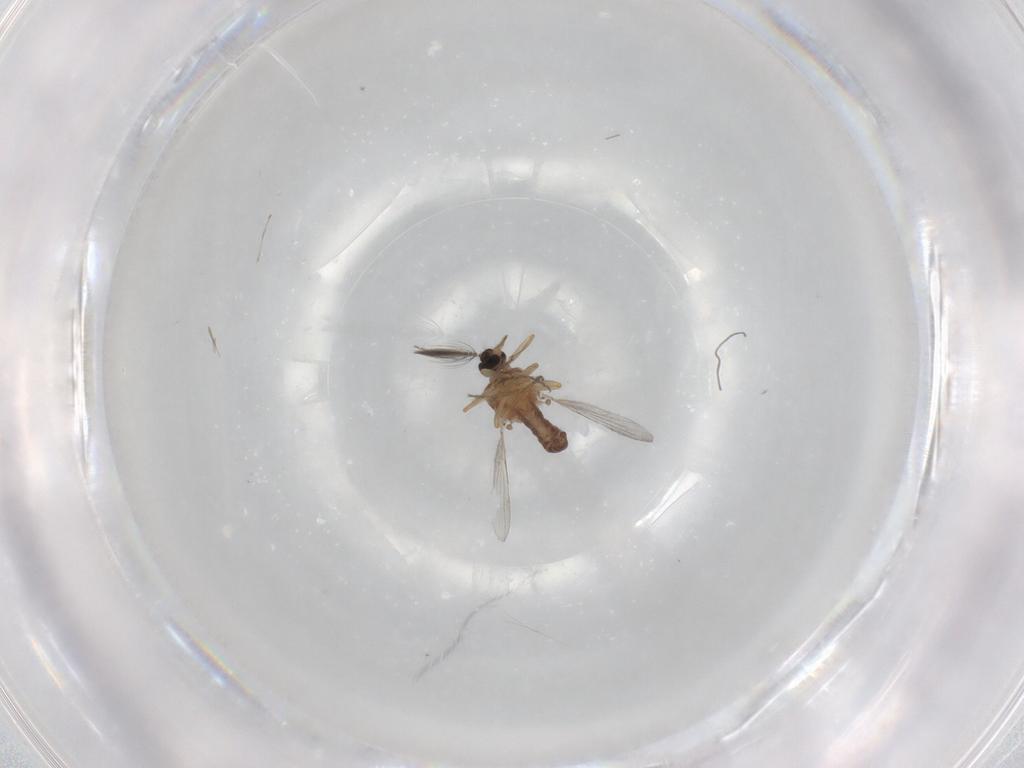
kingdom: Animalia
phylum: Arthropoda
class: Insecta
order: Diptera
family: Ceratopogonidae
